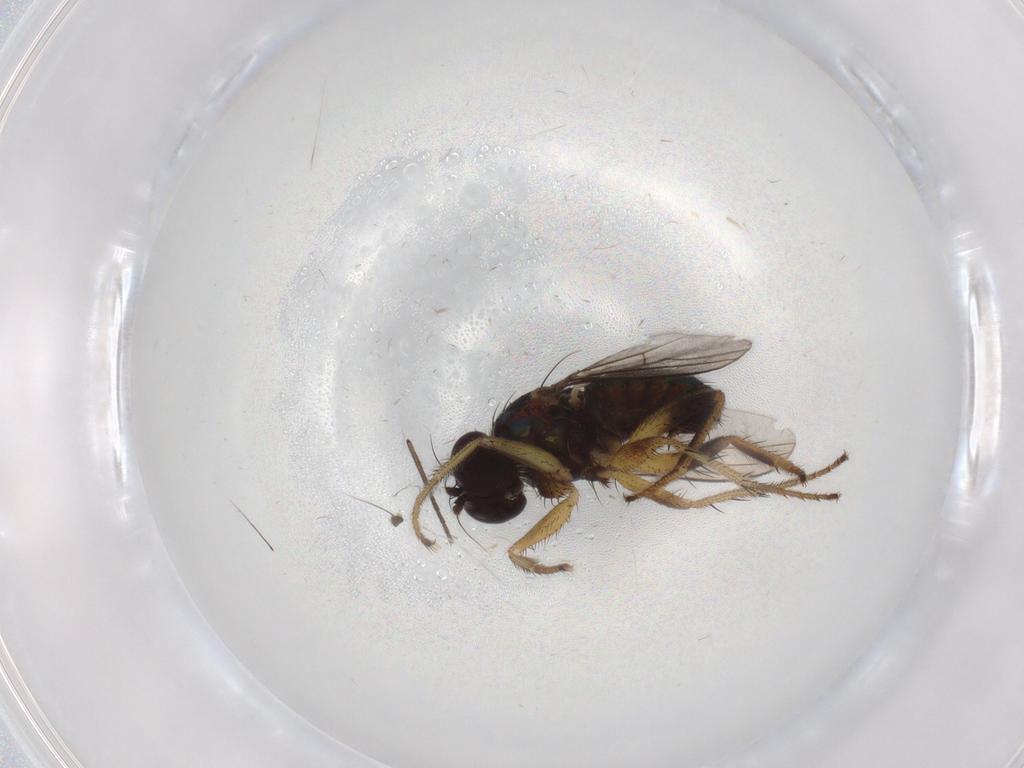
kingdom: Animalia
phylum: Arthropoda
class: Insecta
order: Diptera
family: Dolichopodidae
